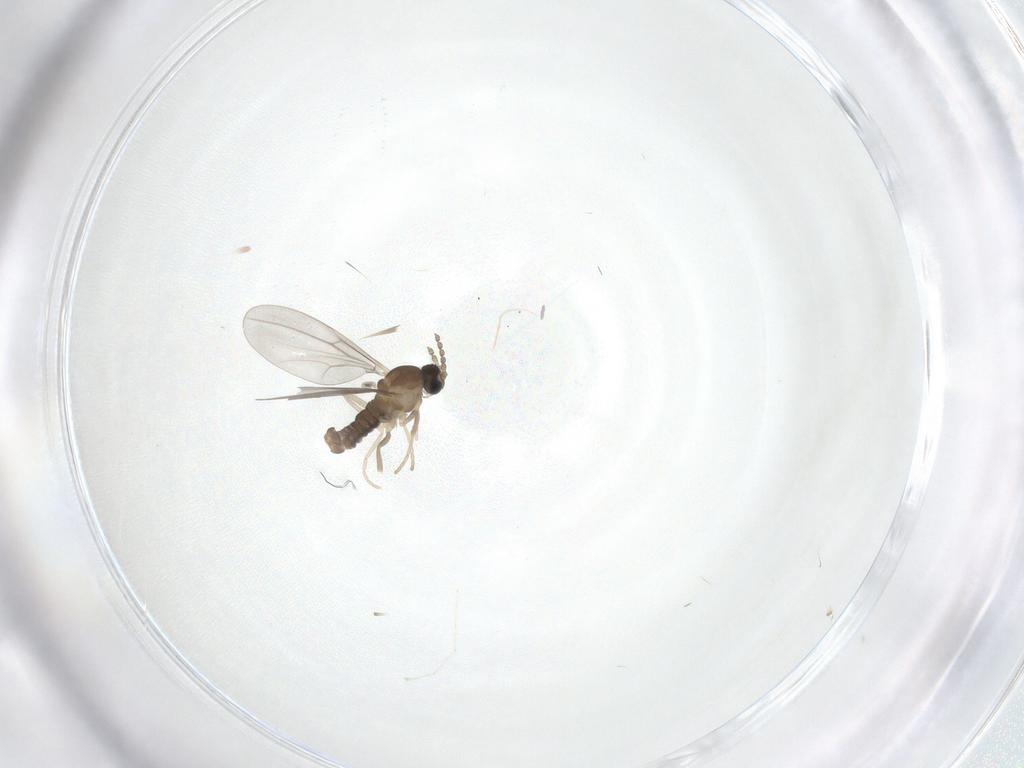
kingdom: Animalia
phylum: Arthropoda
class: Insecta
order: Diptera
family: Cecidomyiidae
